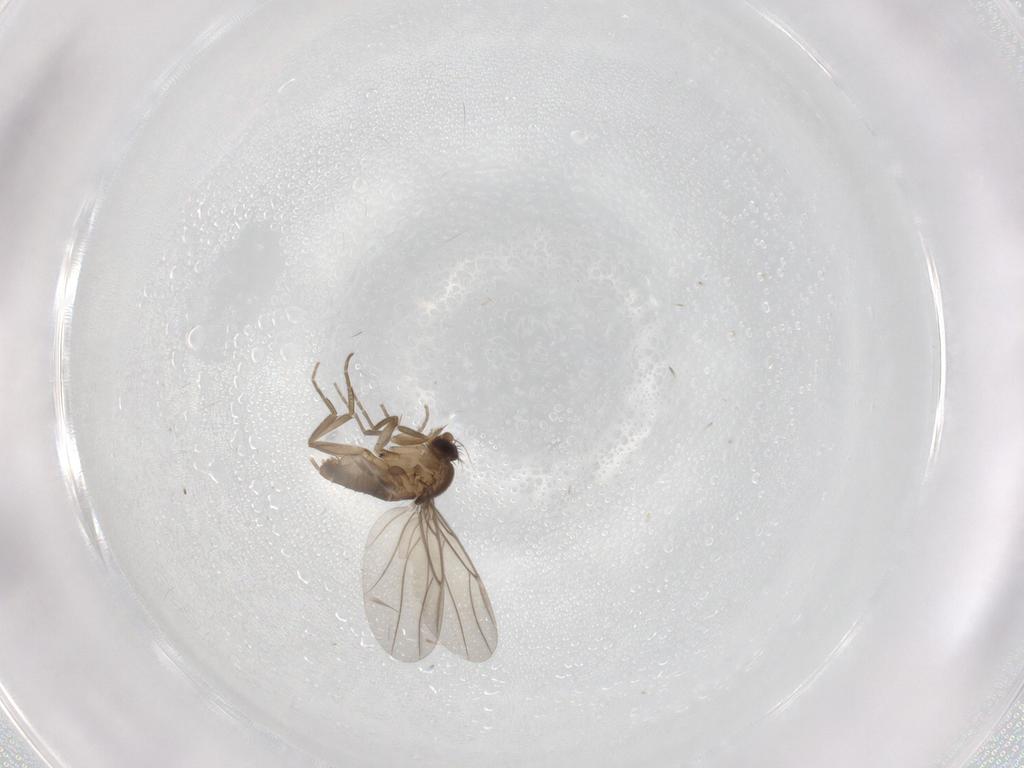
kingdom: Animalia
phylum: Arthropoda
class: Insecta
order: Diptera
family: Phoridae
